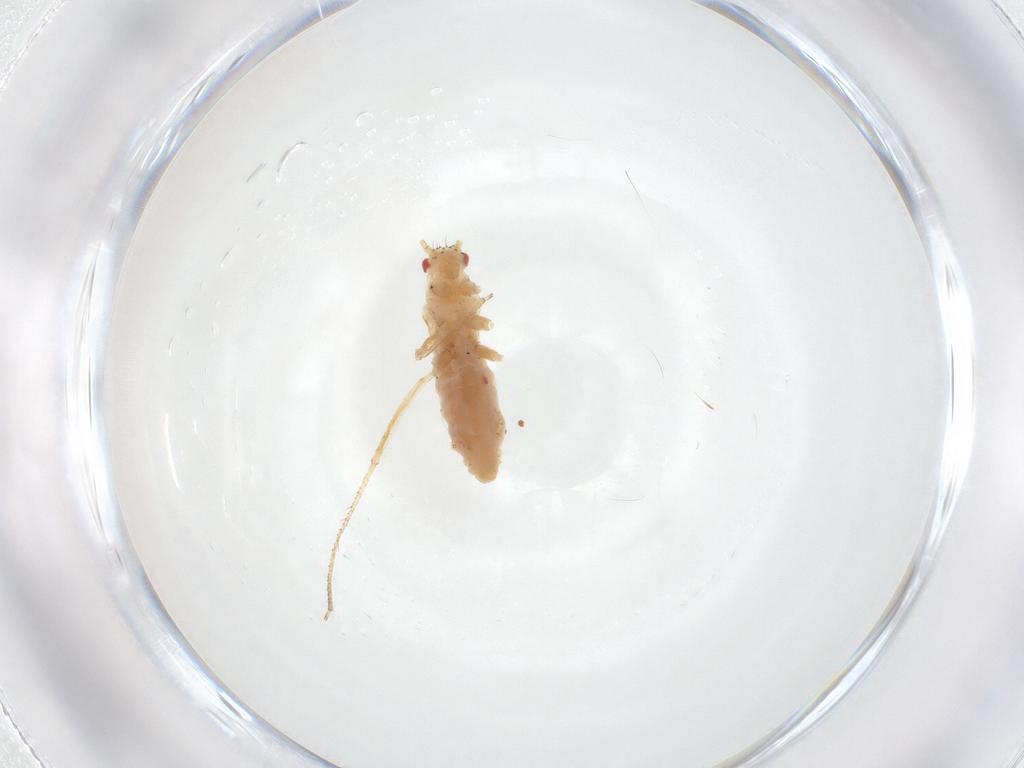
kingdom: Animalia
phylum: Arthropoda
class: Insecta
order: Hemiptera
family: Aphididae
